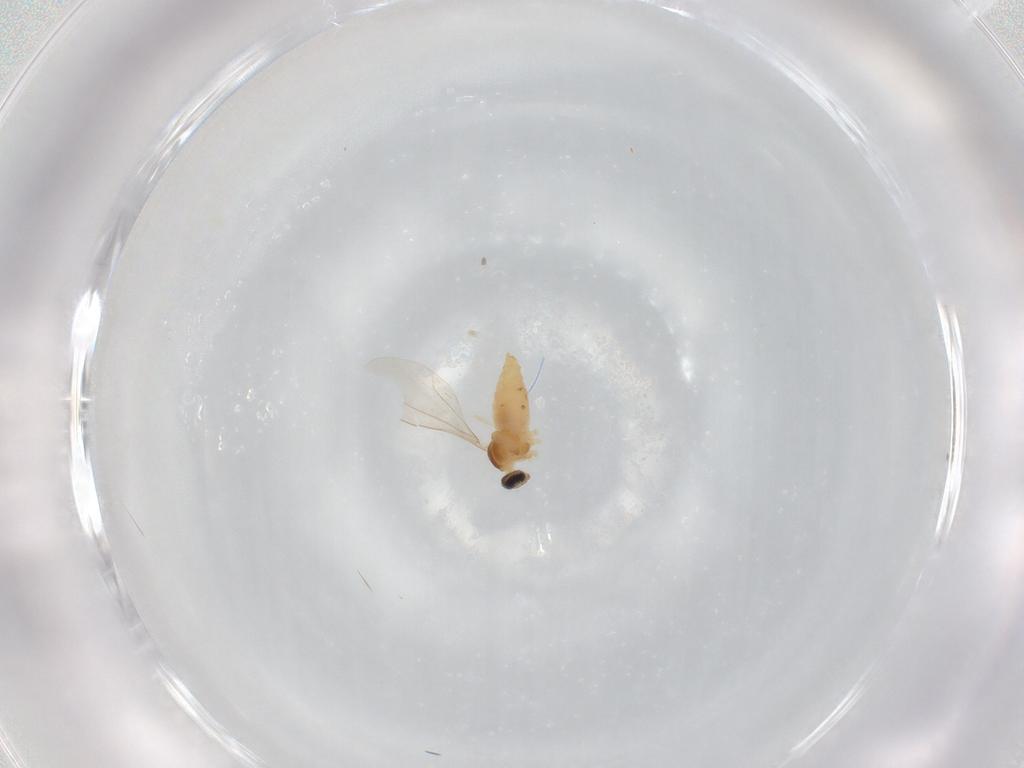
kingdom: Animalia
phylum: Arthropoda
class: Insecta
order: Diptera
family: Cecidomyiidae
